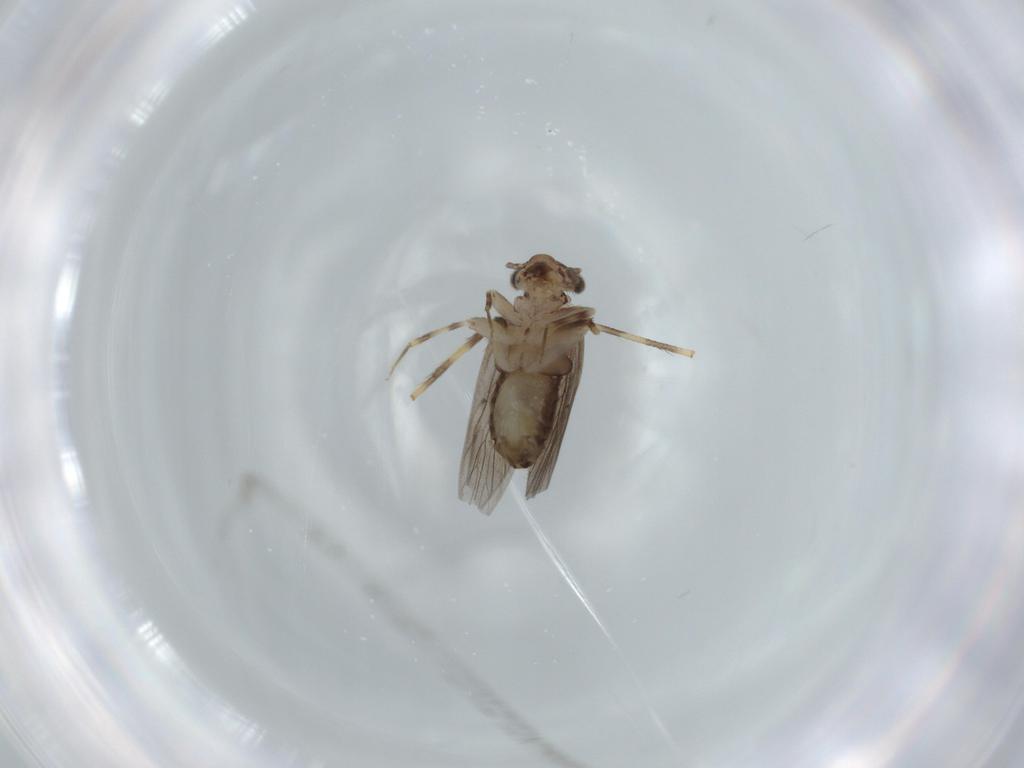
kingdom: Animalia
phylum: Arthropoda
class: Insecta
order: Psocodea
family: Lepidopsocidae
